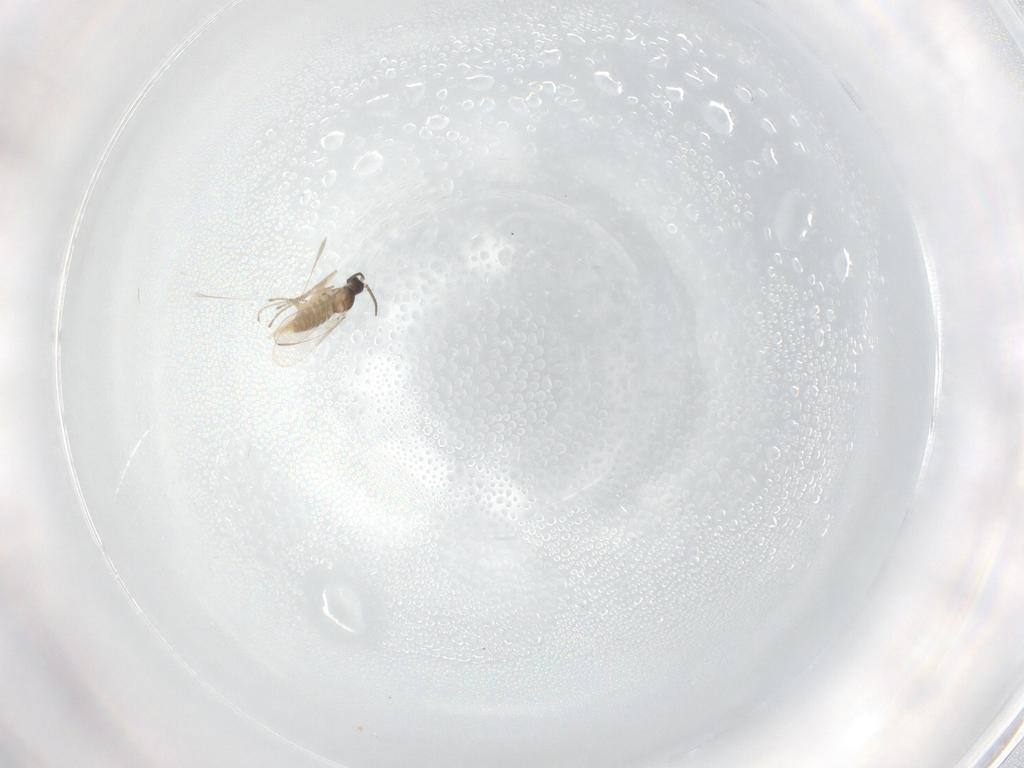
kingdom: Animalia
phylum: Arthropoda
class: Insecta
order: Diptera
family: Cecidomyiidae
